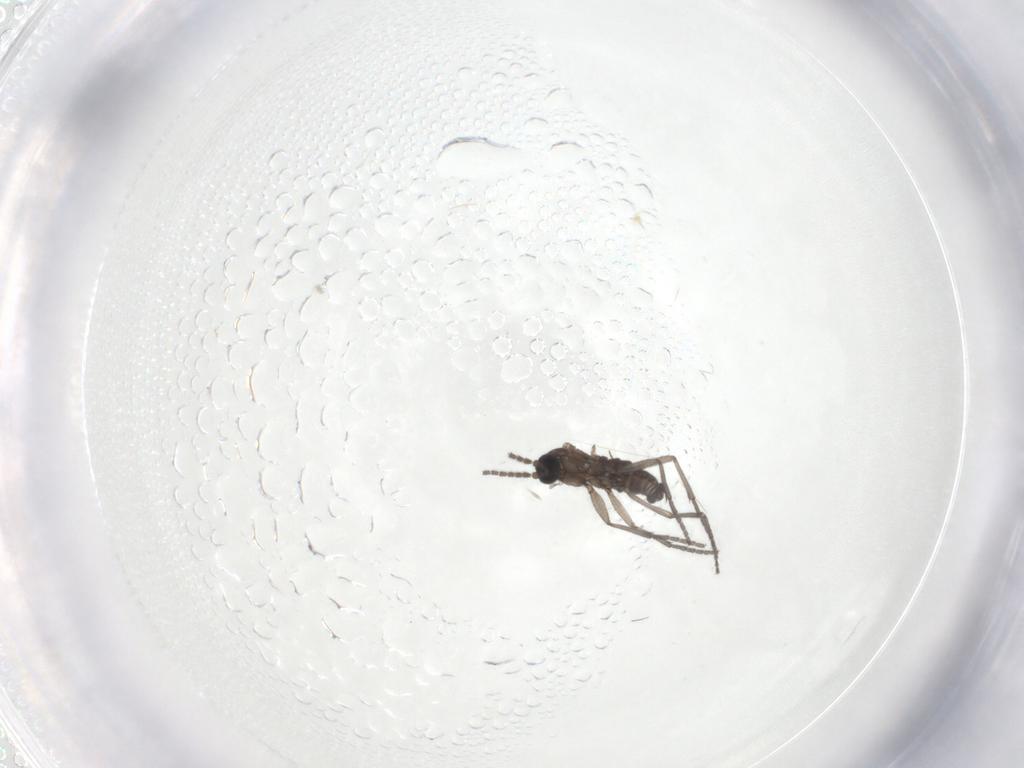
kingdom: Animalia
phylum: Arthropoda
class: Insecta
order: Diptera
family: Sciaridae
